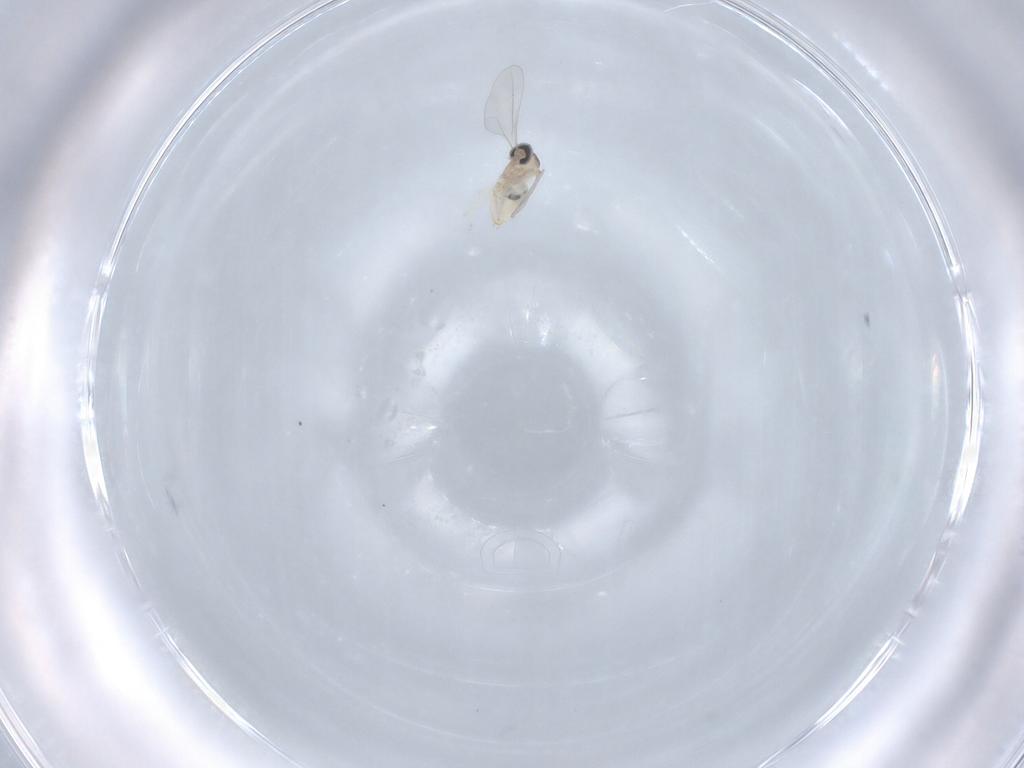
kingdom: Animalia
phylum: Arthropoda
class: Insecta
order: Diptera
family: Cecidomyiidae
